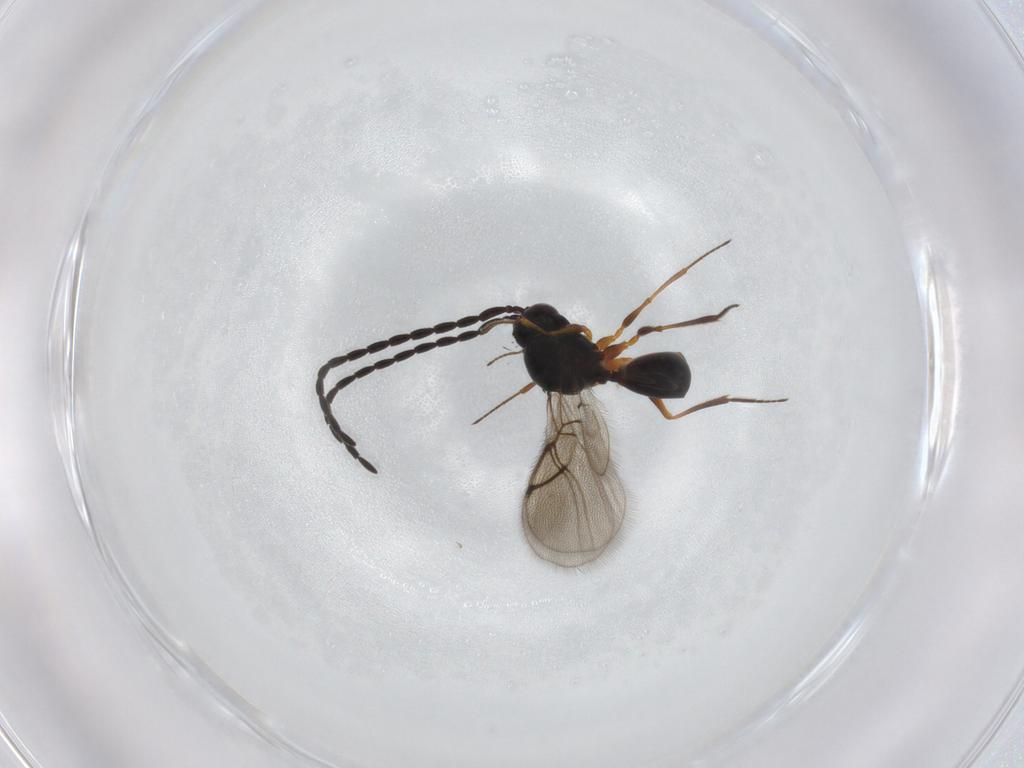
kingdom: Animalia
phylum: Arthropoda
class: Insecta
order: Hymenoptera
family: Figitidae
